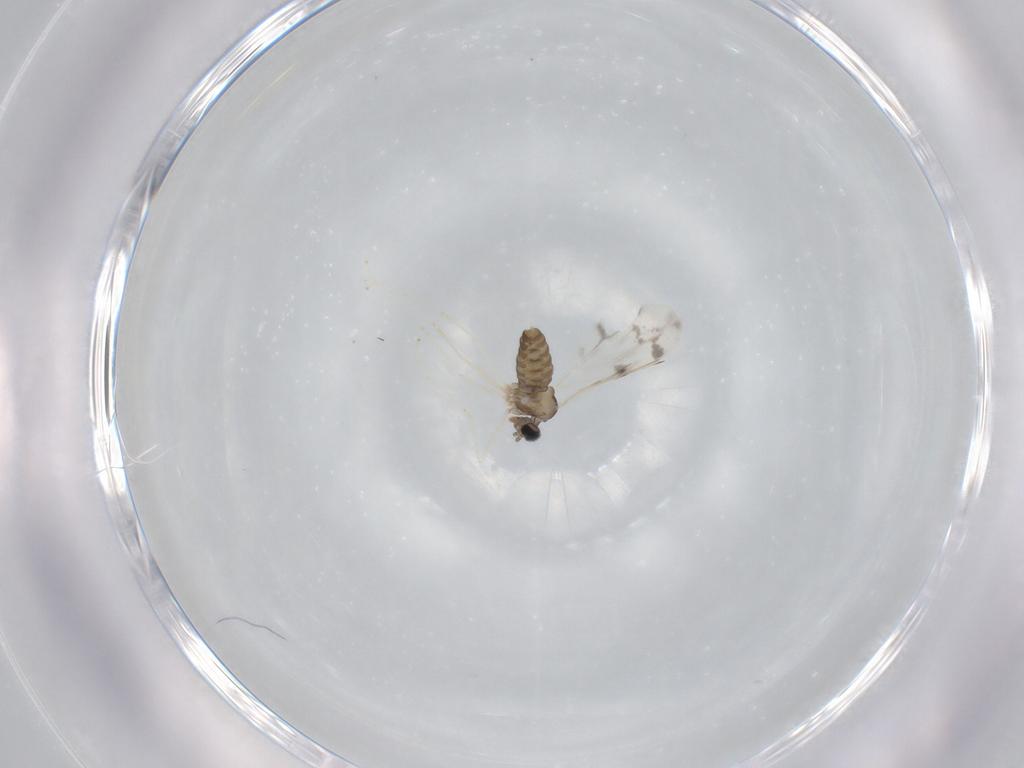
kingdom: Animalia
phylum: Arthropoda
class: Insecta
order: Diptera
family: Cecidomyiidae
